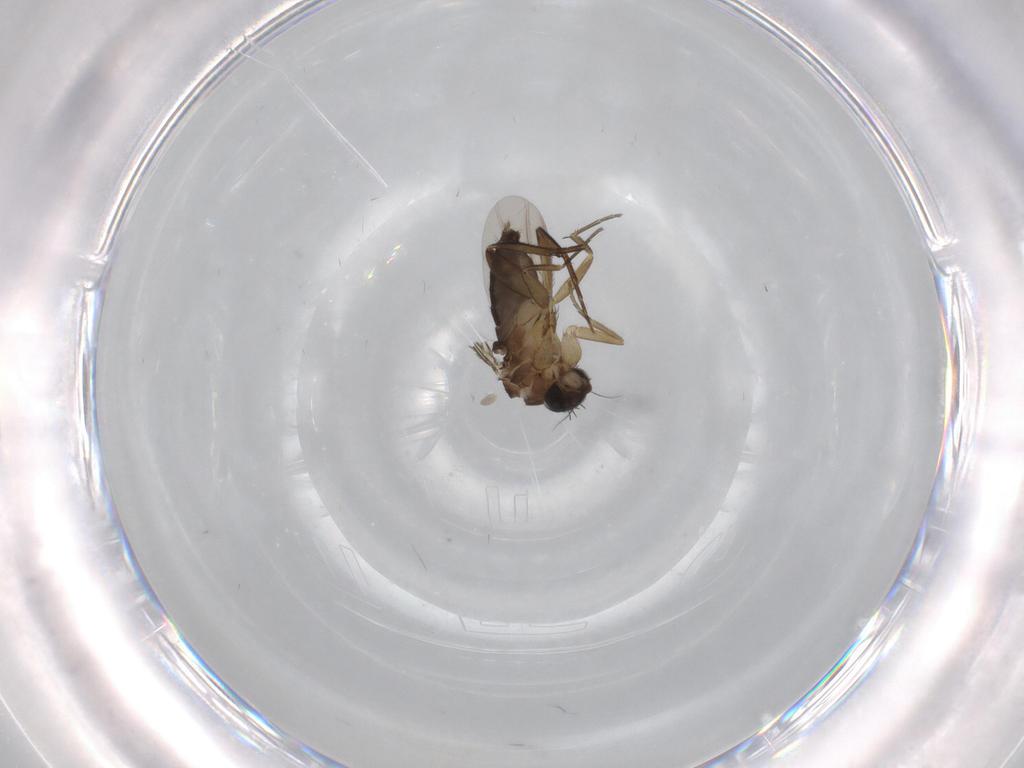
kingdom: Animalia
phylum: Arthropoda
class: Insecta
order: Diptera
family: Phoridae
